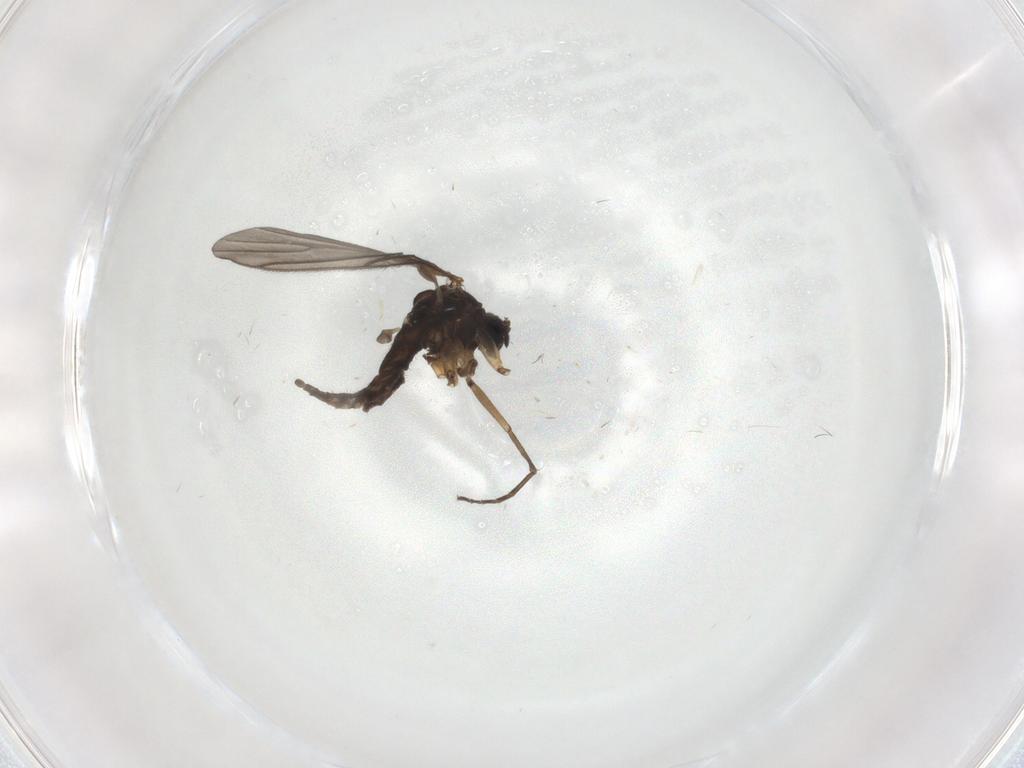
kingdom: Animalia
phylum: Arthropoda
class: Insecta
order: Diptera
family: Sciaridae
